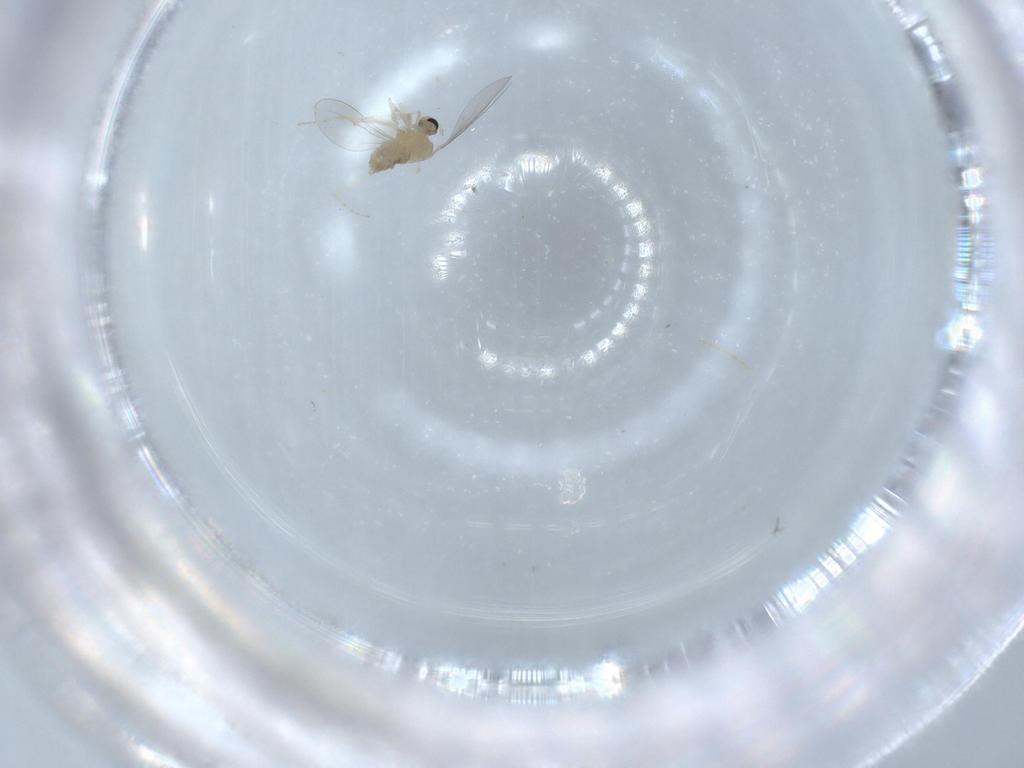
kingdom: Animalia
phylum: Arthropoda
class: Insecta
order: Diptera
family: Cecidomyiidae
